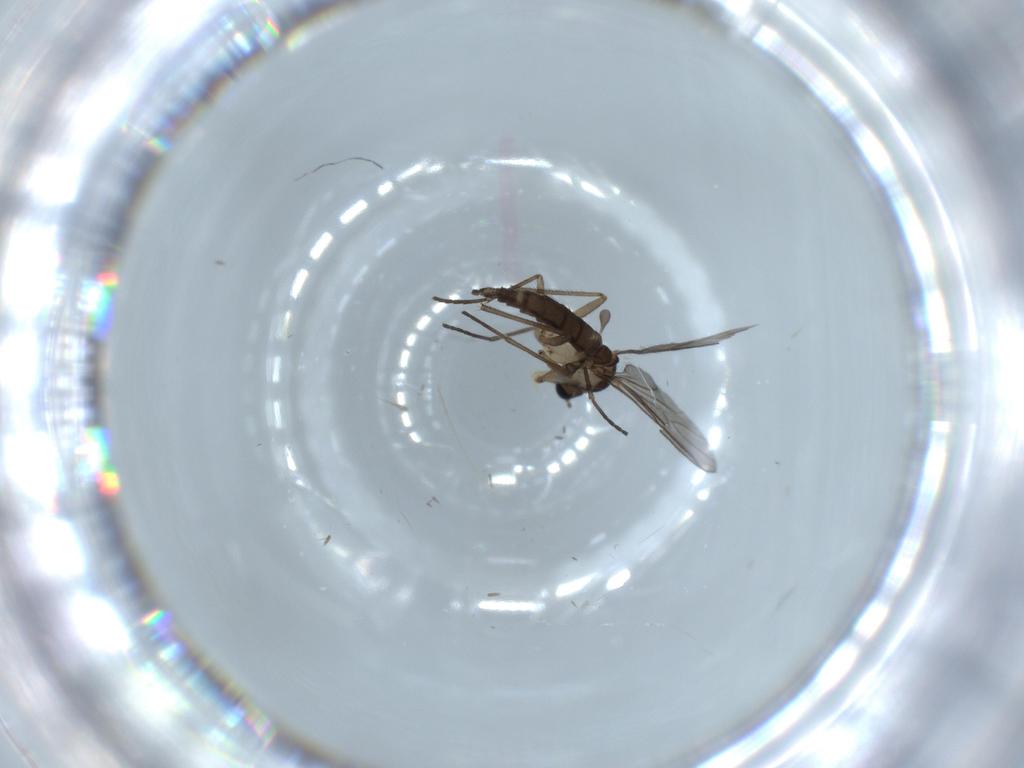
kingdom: Animalia
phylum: Arthropoda
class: Insecta
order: Diptera
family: Sciaridae
